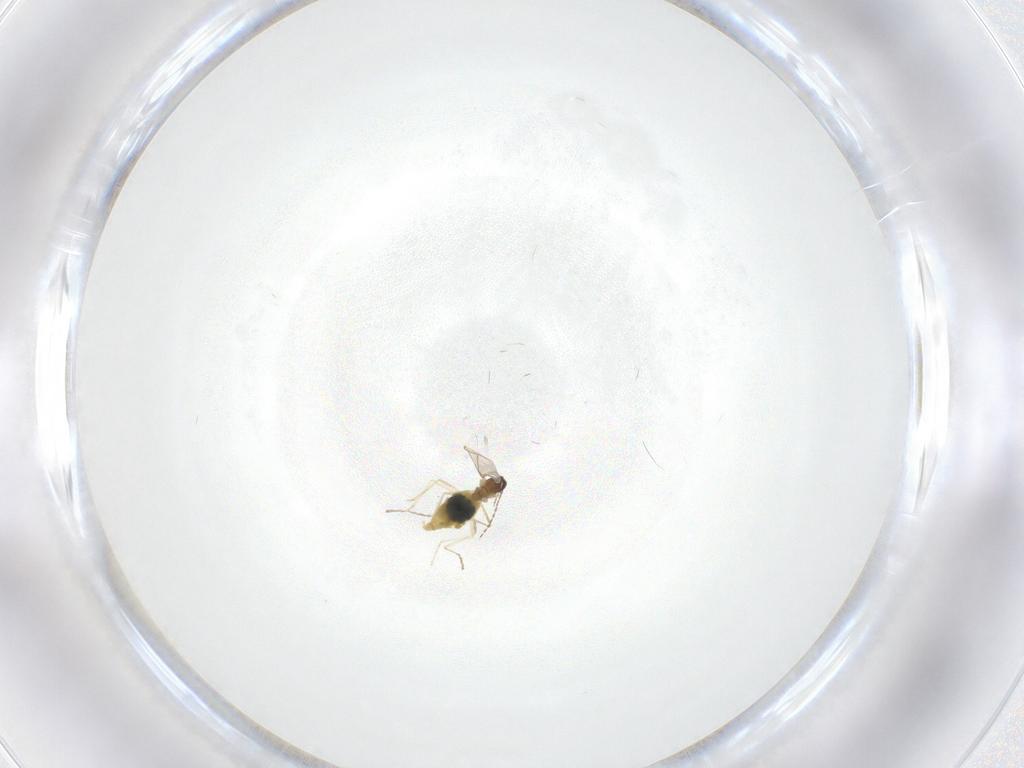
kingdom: Animalia
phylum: Arthropoda
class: Insecta
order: Diptera
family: Cecidomyiidae
